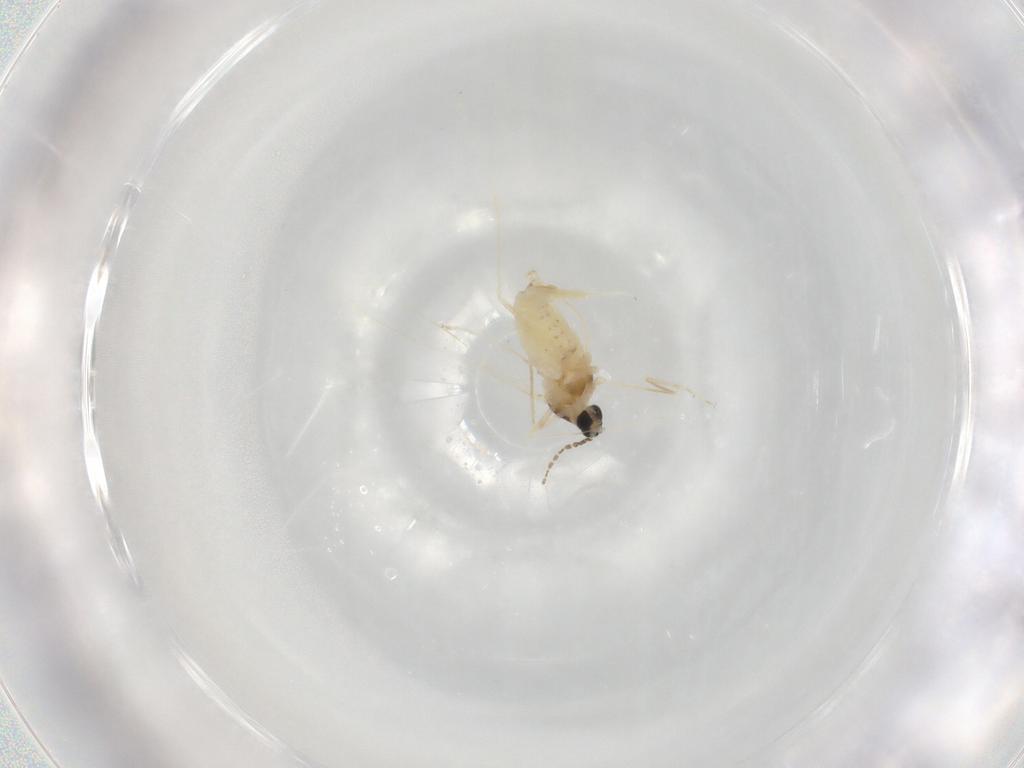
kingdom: Animalia
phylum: Arthropoda
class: Insecta
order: Diptera
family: Cecidomyiidae
